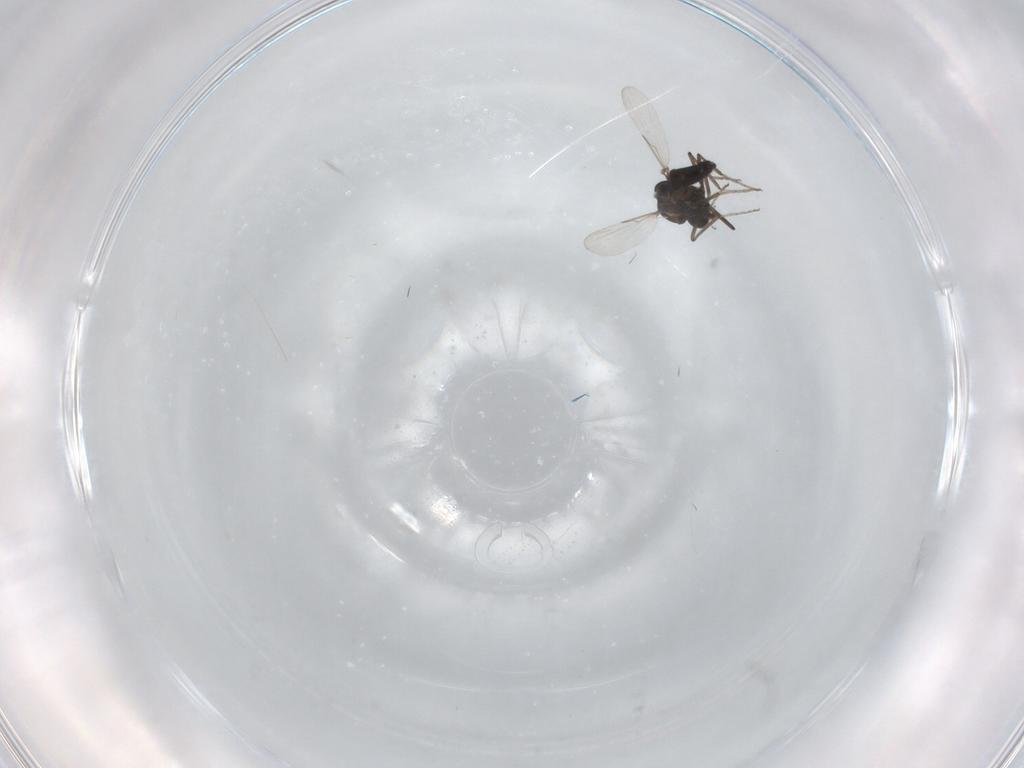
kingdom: Animalia
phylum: Arthropoda
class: Insecta
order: Diptera
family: Ceratopogonidae
